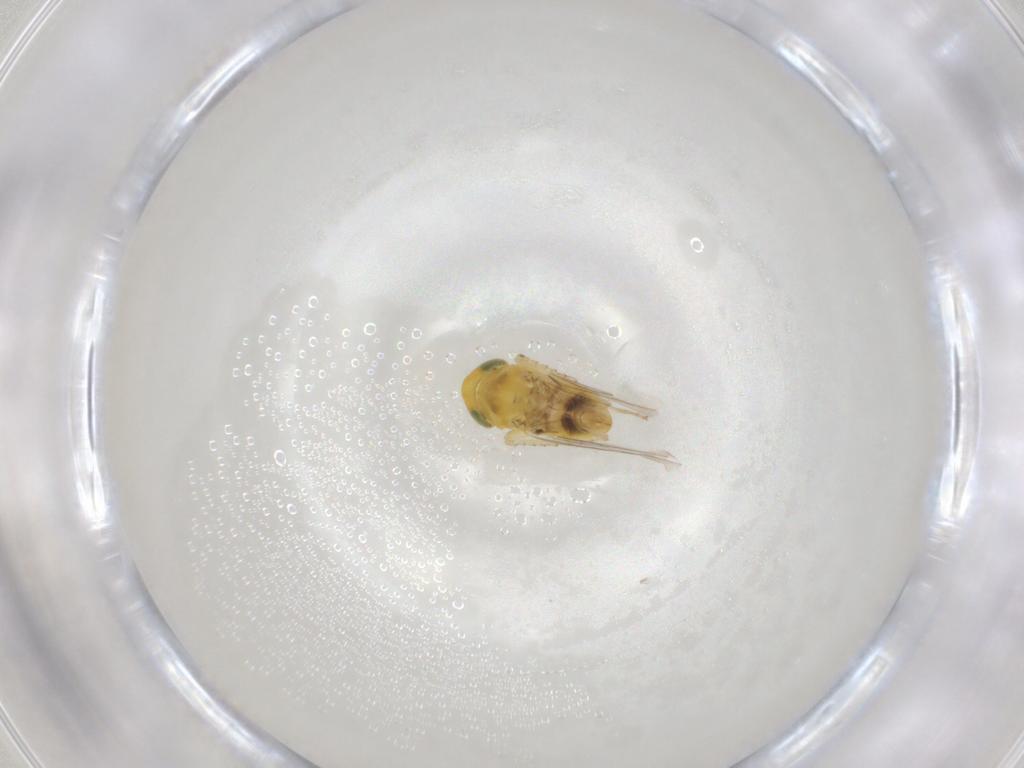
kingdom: Animalia
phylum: Arthropoda
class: Insecta
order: Hemiptera
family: Cicadellidae
